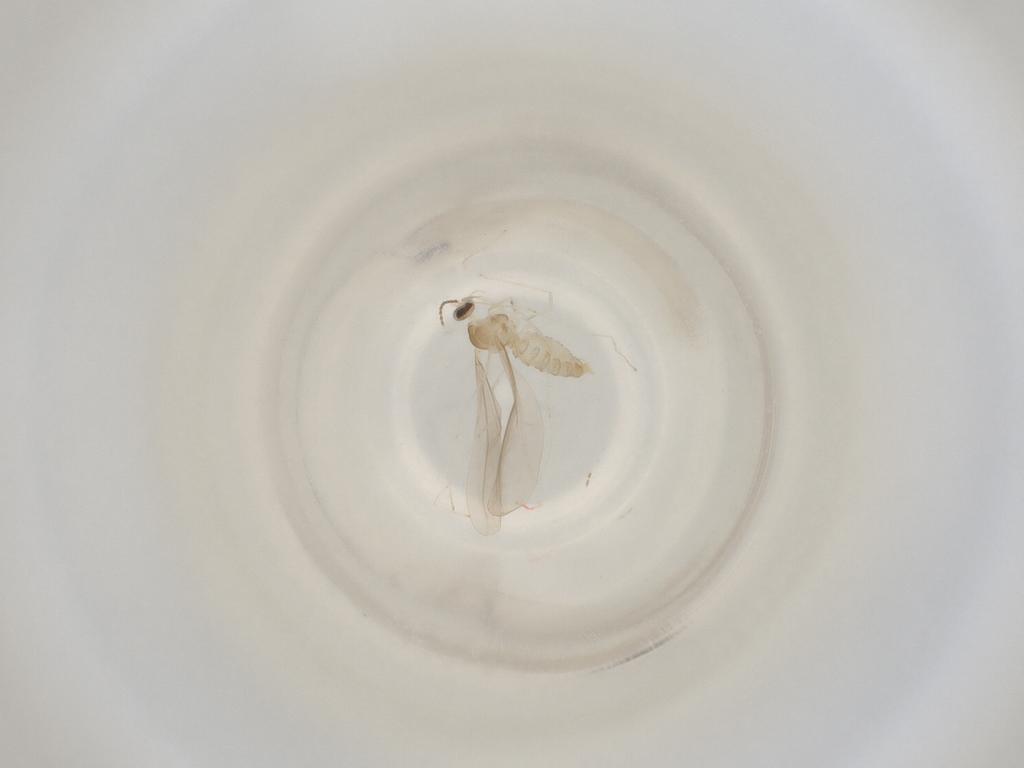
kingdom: Animalia
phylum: Arthropoda
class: Insecta
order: Diptera
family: Cecidomyiidae
